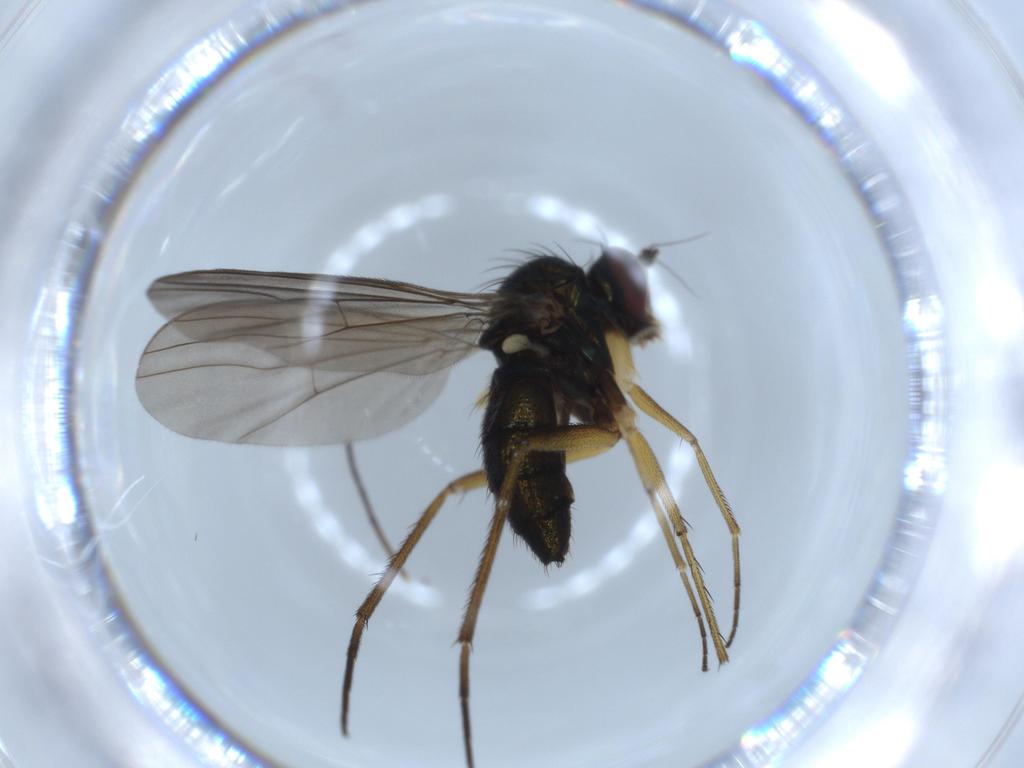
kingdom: Animalia
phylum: Arthropoda
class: Insecta
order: Diptera
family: Dolichopodidae
